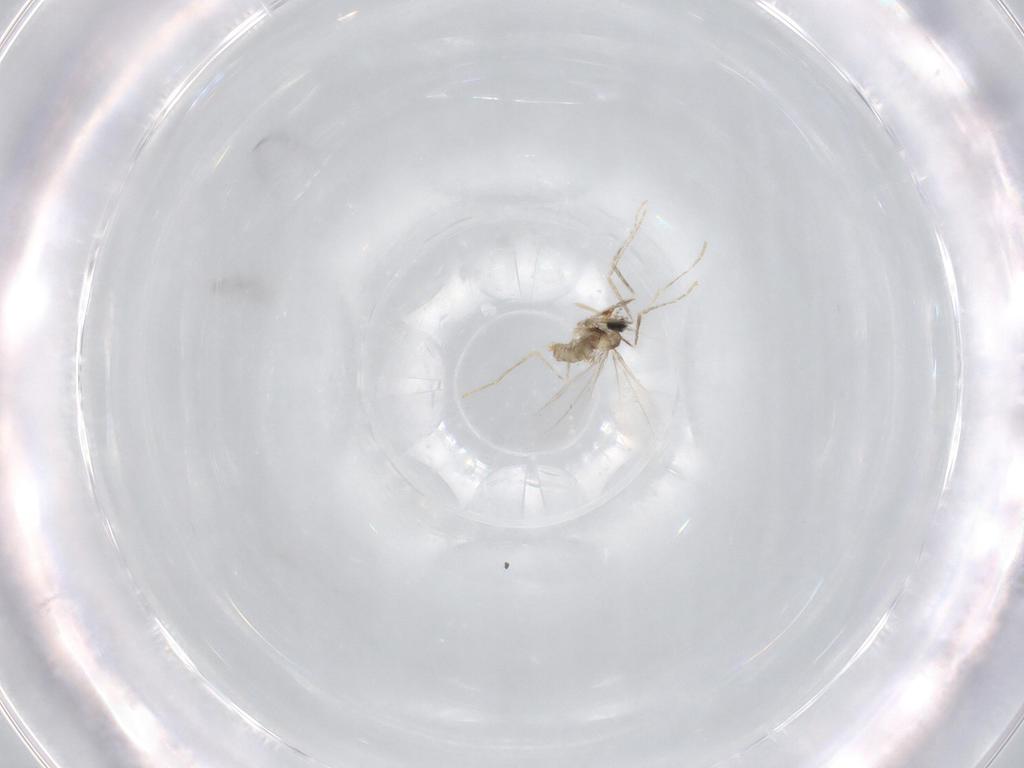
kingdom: Animalia
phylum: Arthropoda
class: Insecta
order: Diptera
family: Cecidomyiidae
